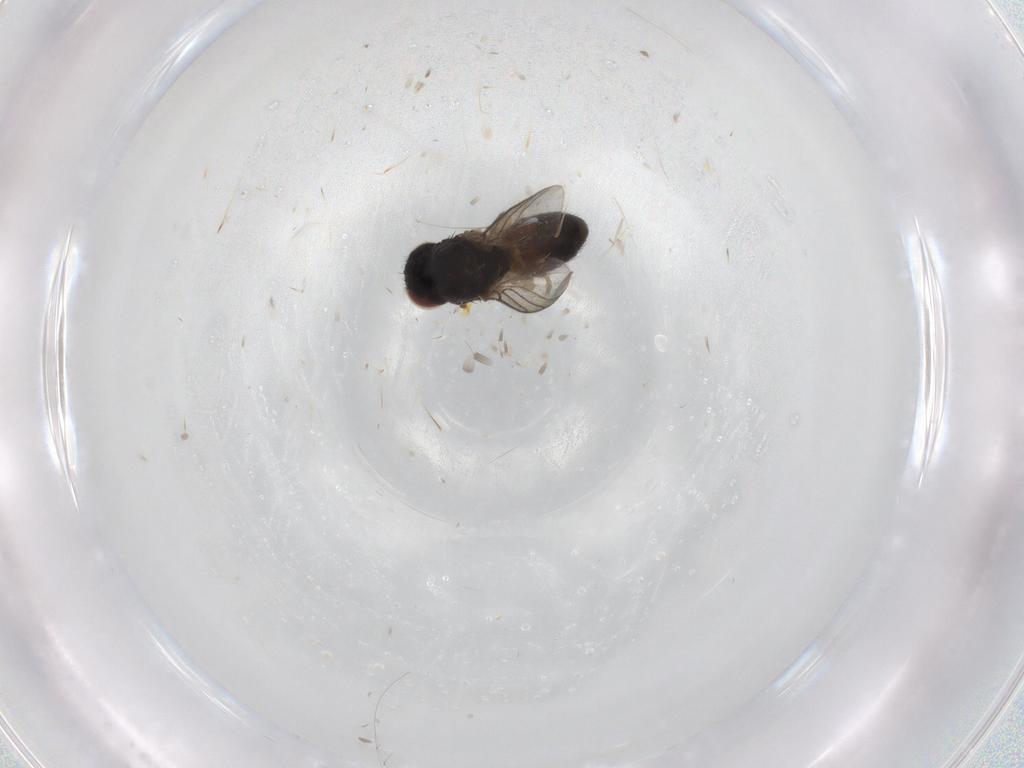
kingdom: Animalia
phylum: Arthropoda
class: Insecta
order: Diptera
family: Chloropidae
